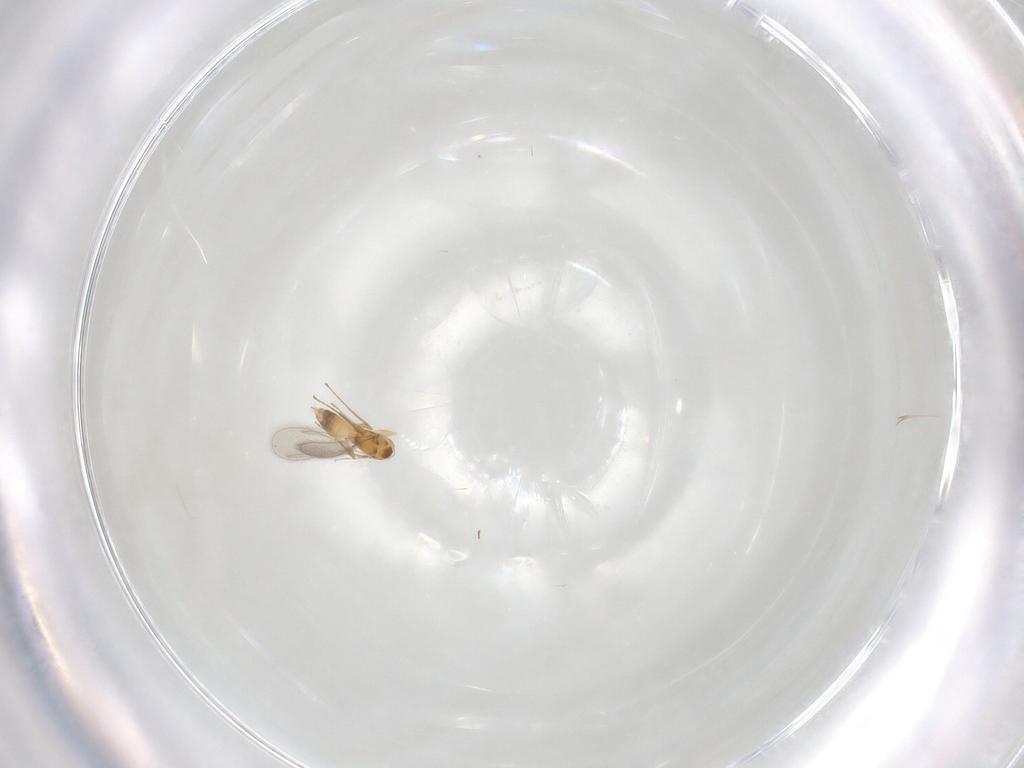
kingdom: Animalia
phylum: Arthropoda
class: Insecta
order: Hymenoptera
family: Mymaridae
